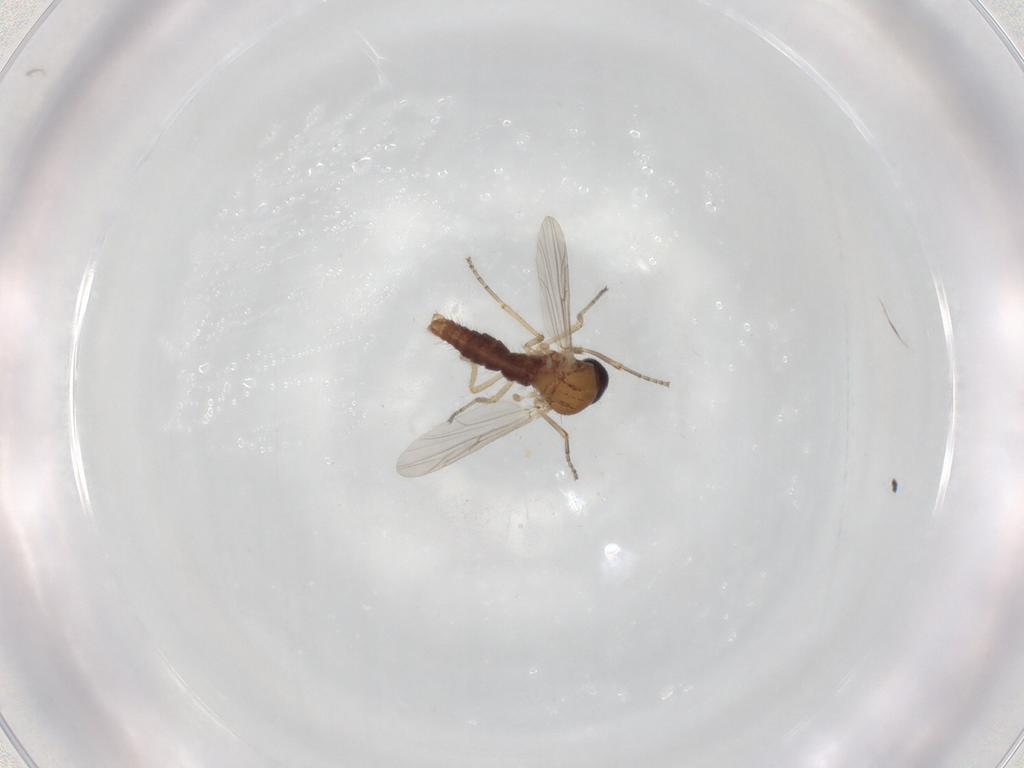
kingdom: Animalia
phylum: Arthropoda
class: Insecta
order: Diptera
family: Ceratopogonidae
